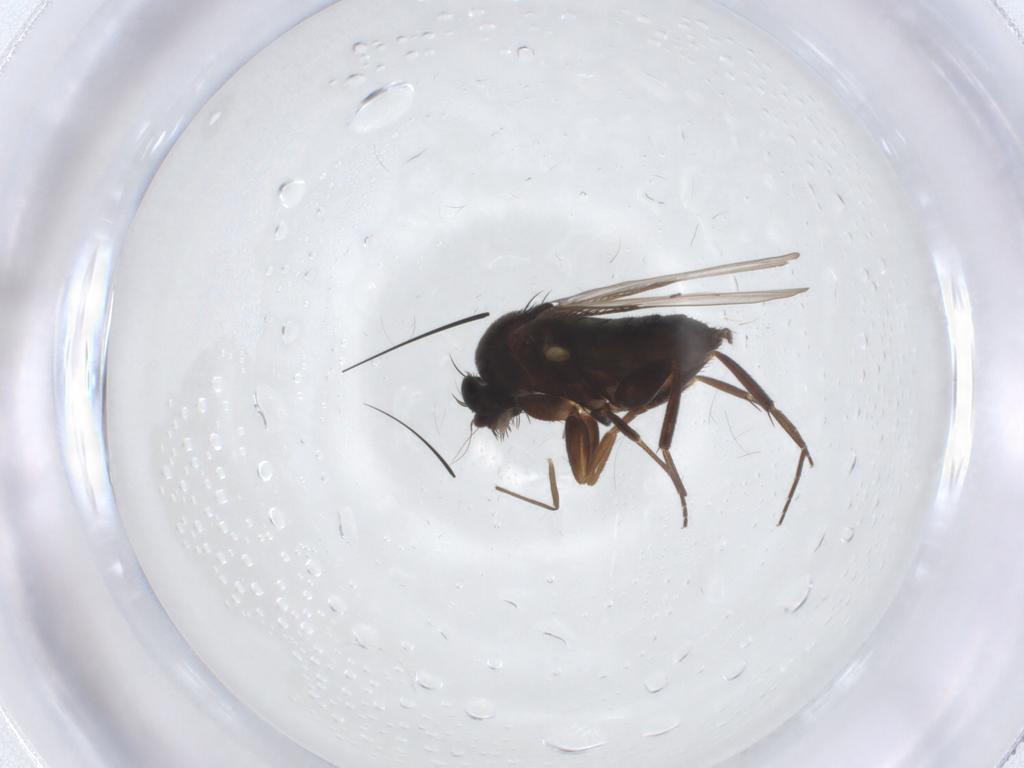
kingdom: Animalia
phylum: Arthropoda
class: Insecta
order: Diptera
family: Phoridae
